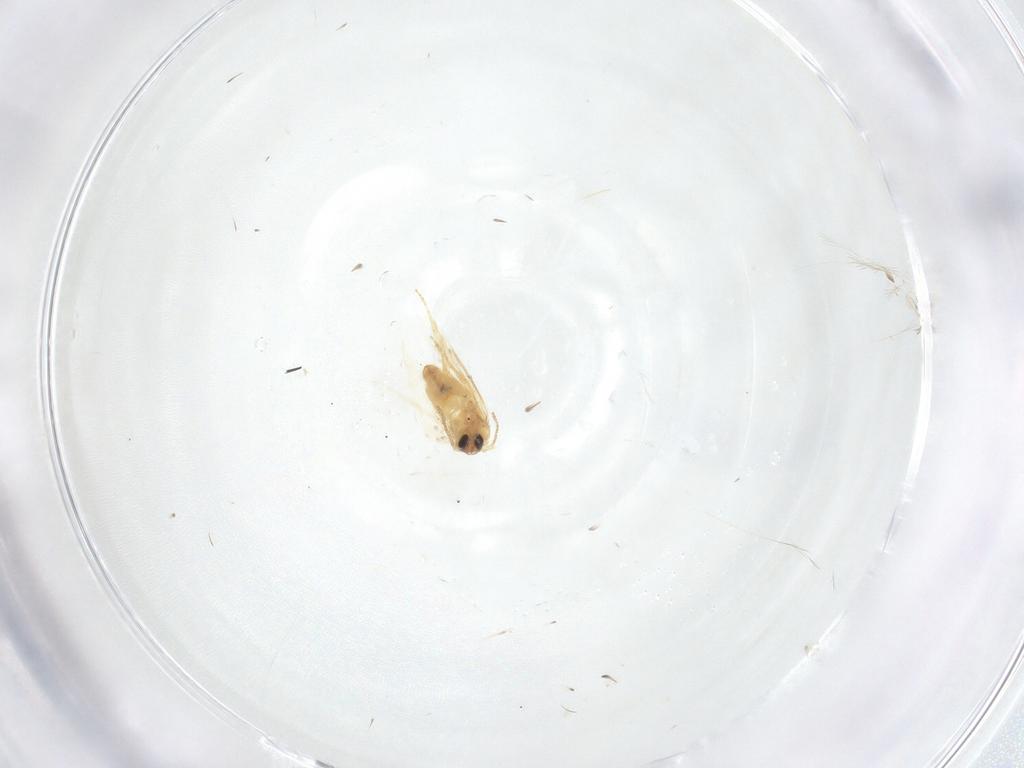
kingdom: Animalia
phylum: Arthropoda
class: Insecta
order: Lepidoptera
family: Crambidae
